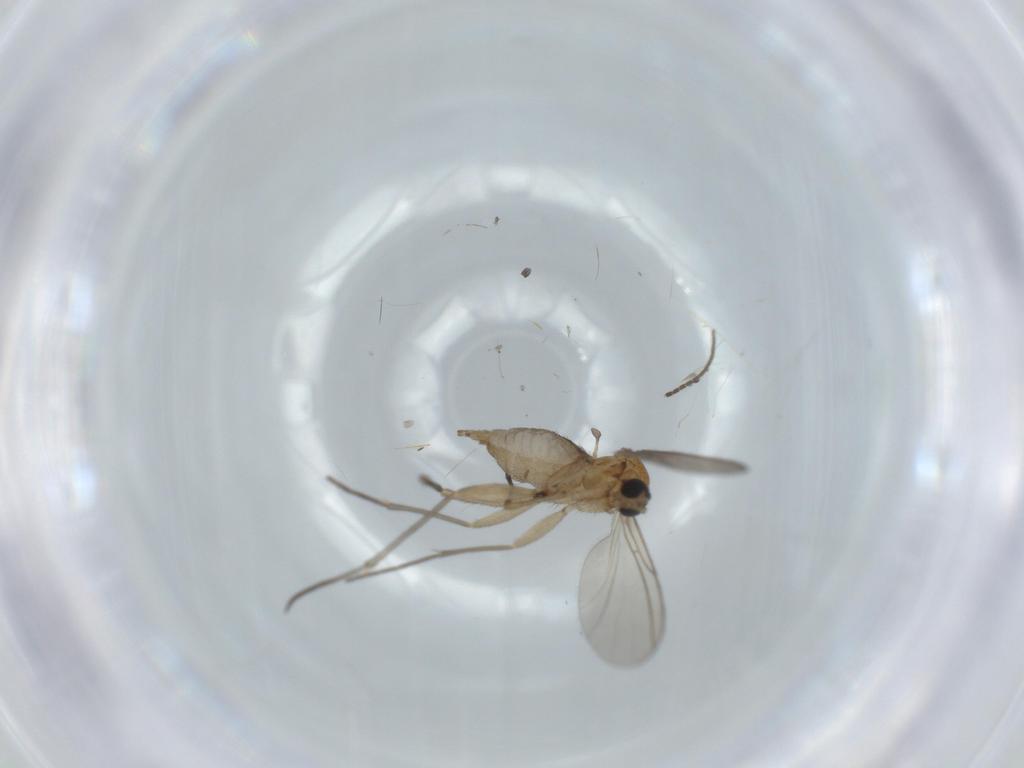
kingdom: Animalia
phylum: Arthropoda
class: Insecta
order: Diptera
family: Sciaridae
